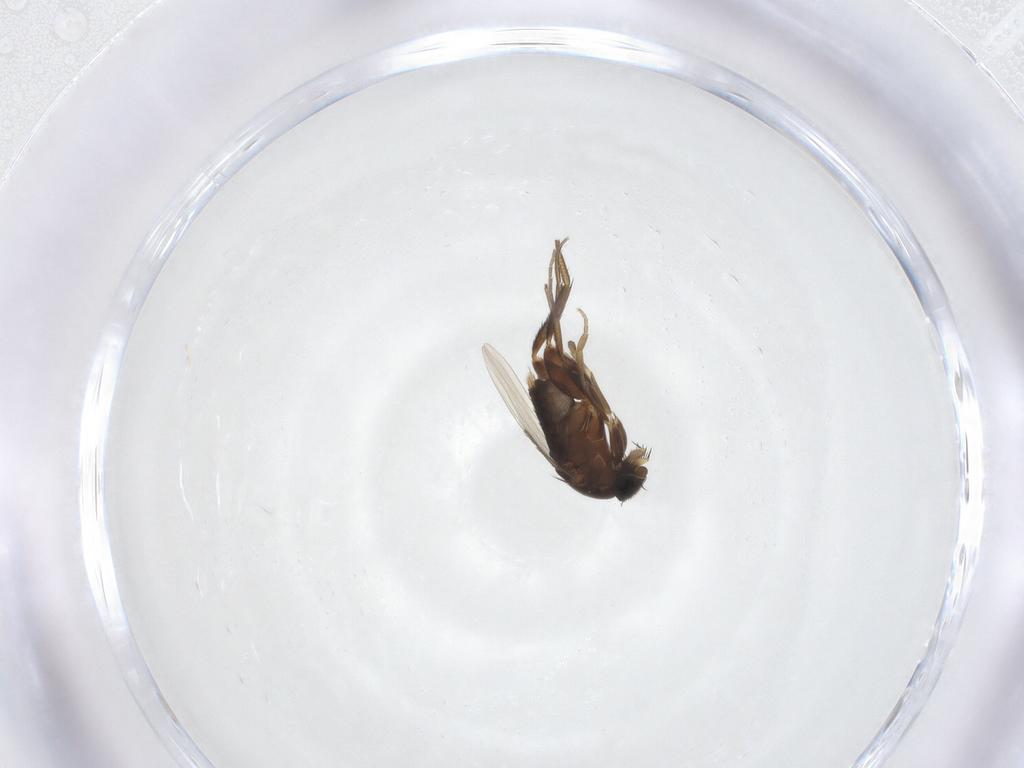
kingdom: Animalia
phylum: Arthropoda
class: Insecta
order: Diptera
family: Phoridae
